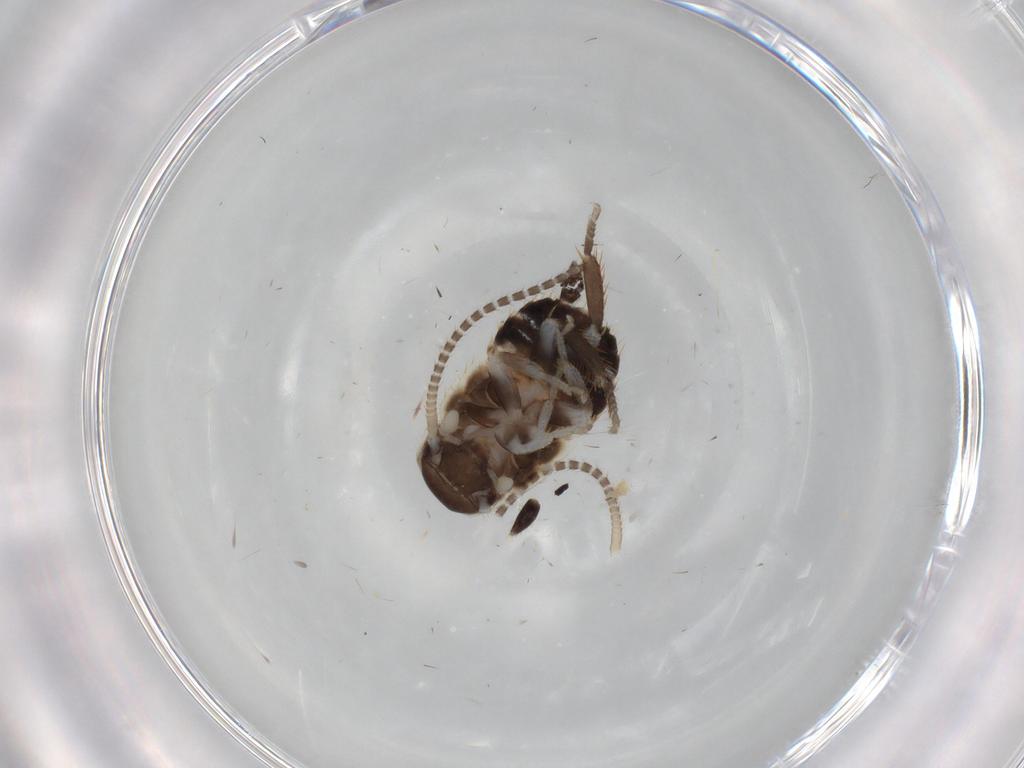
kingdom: Animalia
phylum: Arthropoda
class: Insecta
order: Blattodea
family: Ectobiidae
